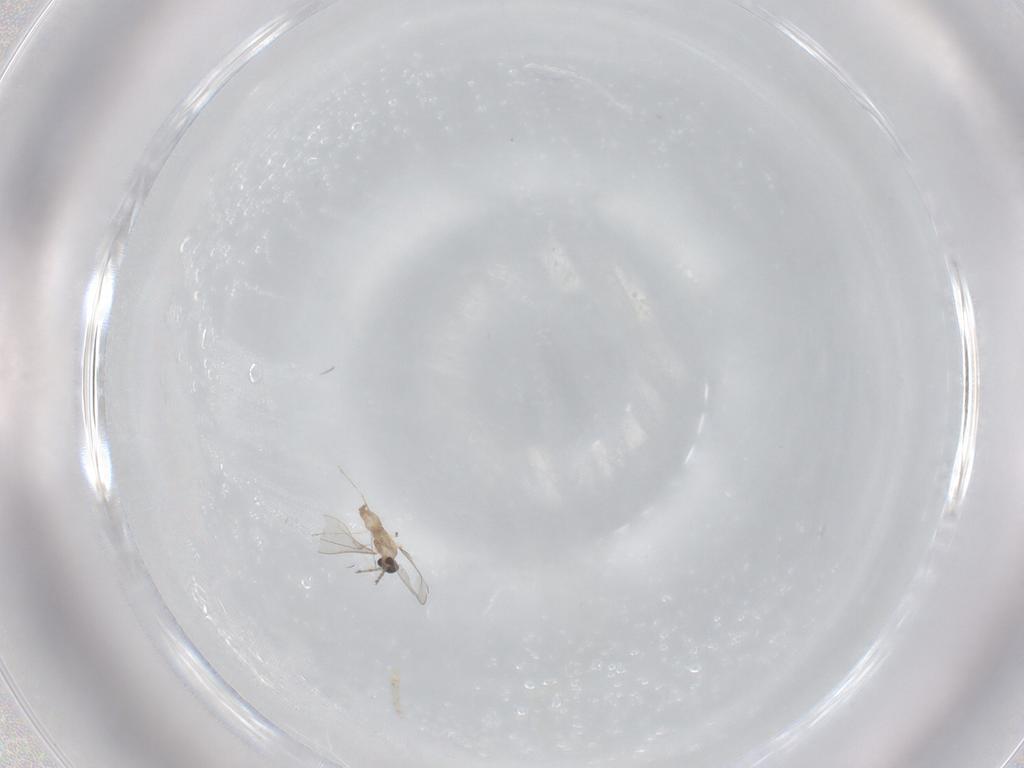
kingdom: Animalia
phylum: Arthropoda
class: Insecta
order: Diptera
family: Cecidomyiidae
